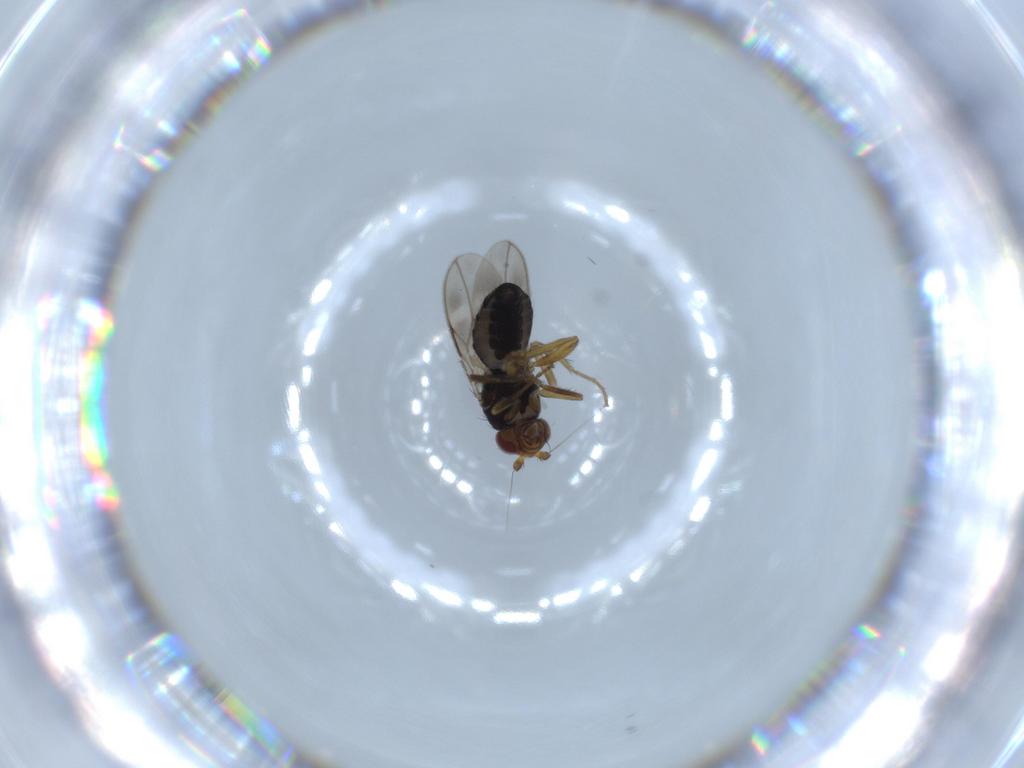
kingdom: Animalia
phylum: Arthropoda
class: Insecta
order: Diptera
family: Sphaeroceridae
